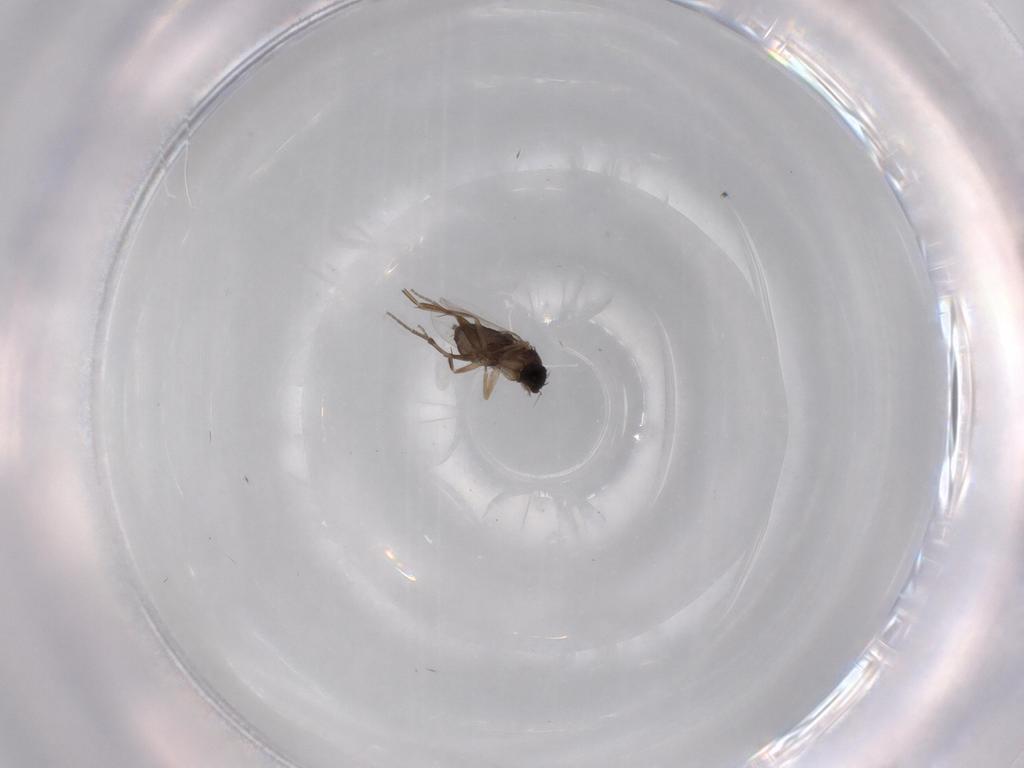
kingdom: Animalia
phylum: Arthropoda
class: Insecta
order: Diptera
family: Phoridae
